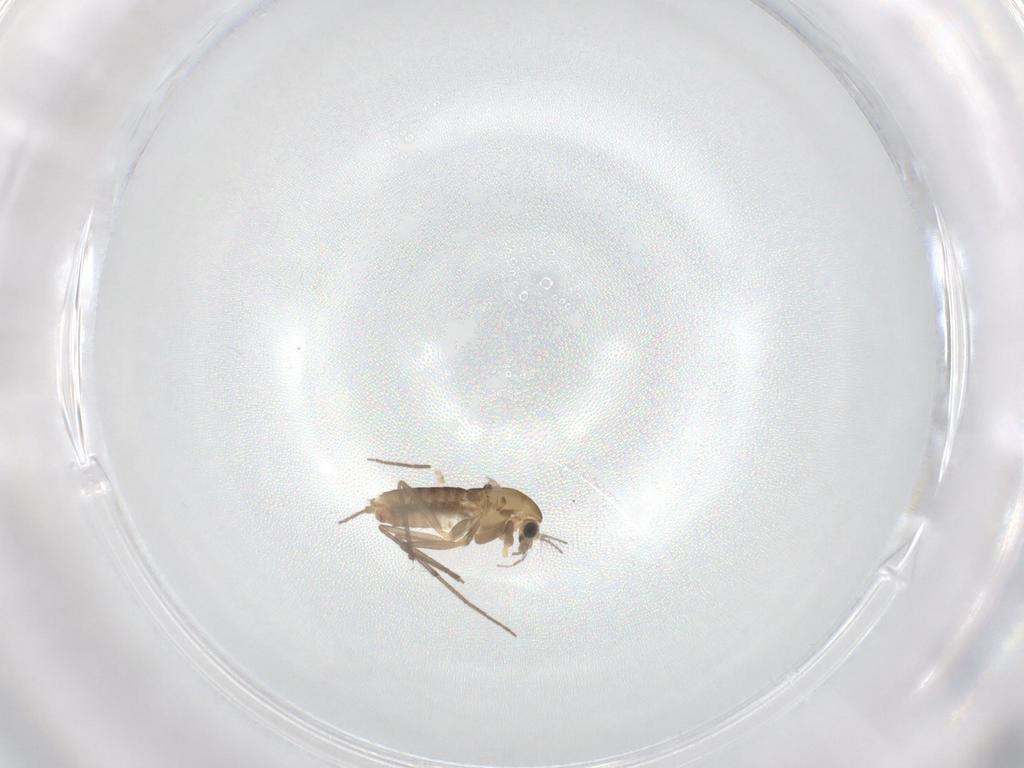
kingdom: Animalia
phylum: Arthropoda
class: Insecta
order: Diptera
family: Chironomidae
